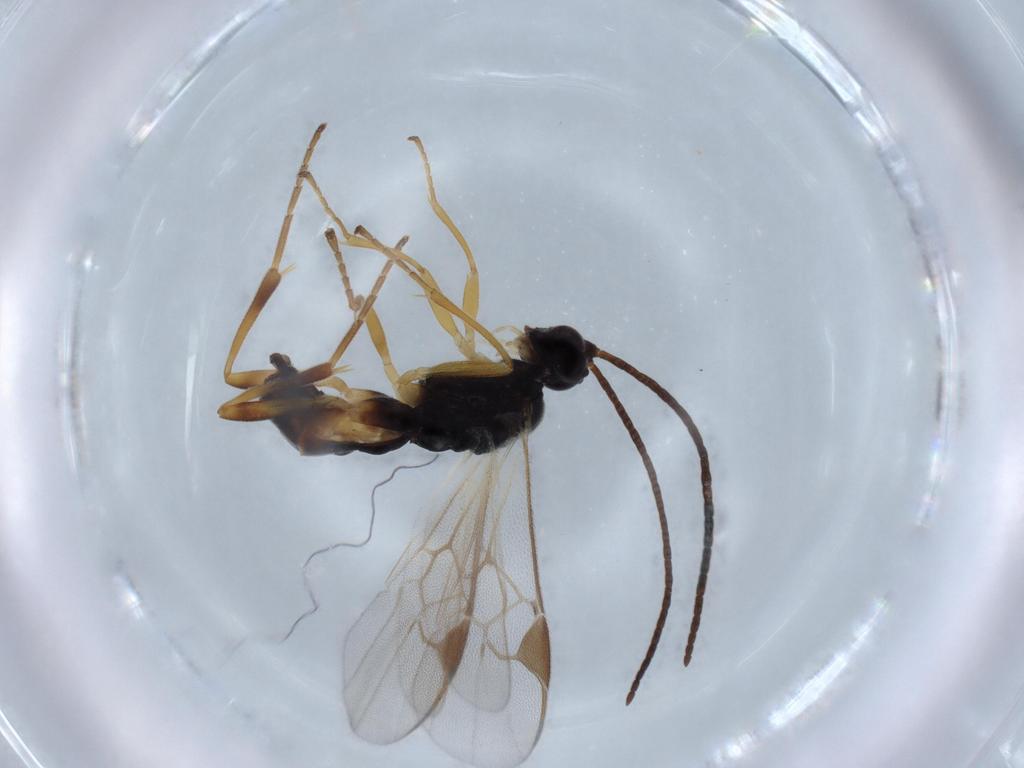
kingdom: Animalia
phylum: Arthropoda
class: Insecta
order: Hymenoptera
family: Braconidae
